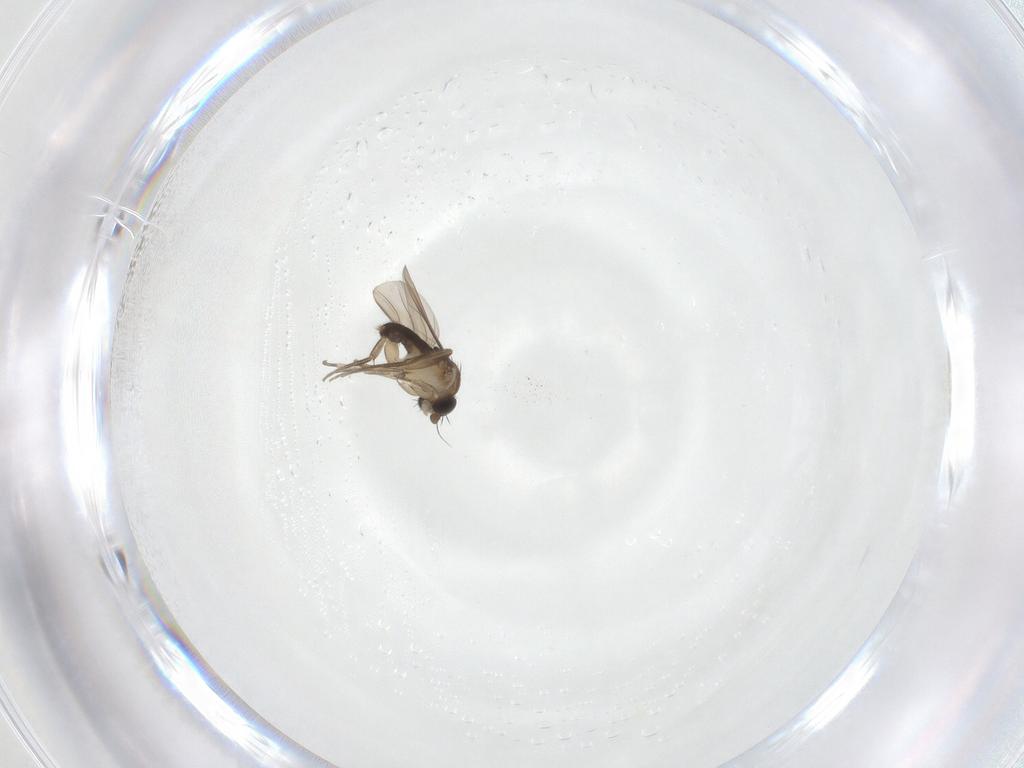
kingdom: Animalia
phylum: Arthropoda
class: Insecta
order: Diptera
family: Phoridae
